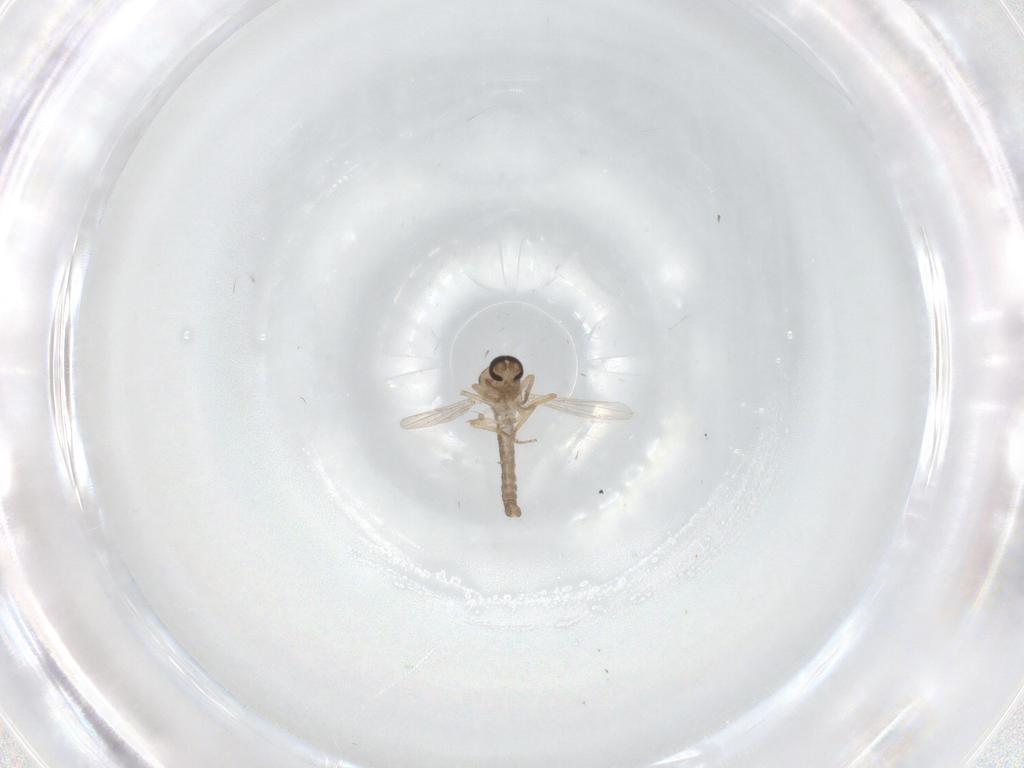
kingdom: Animalia
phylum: Arthropoda
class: Insecta
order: Diptera
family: Ceratopogonidae
